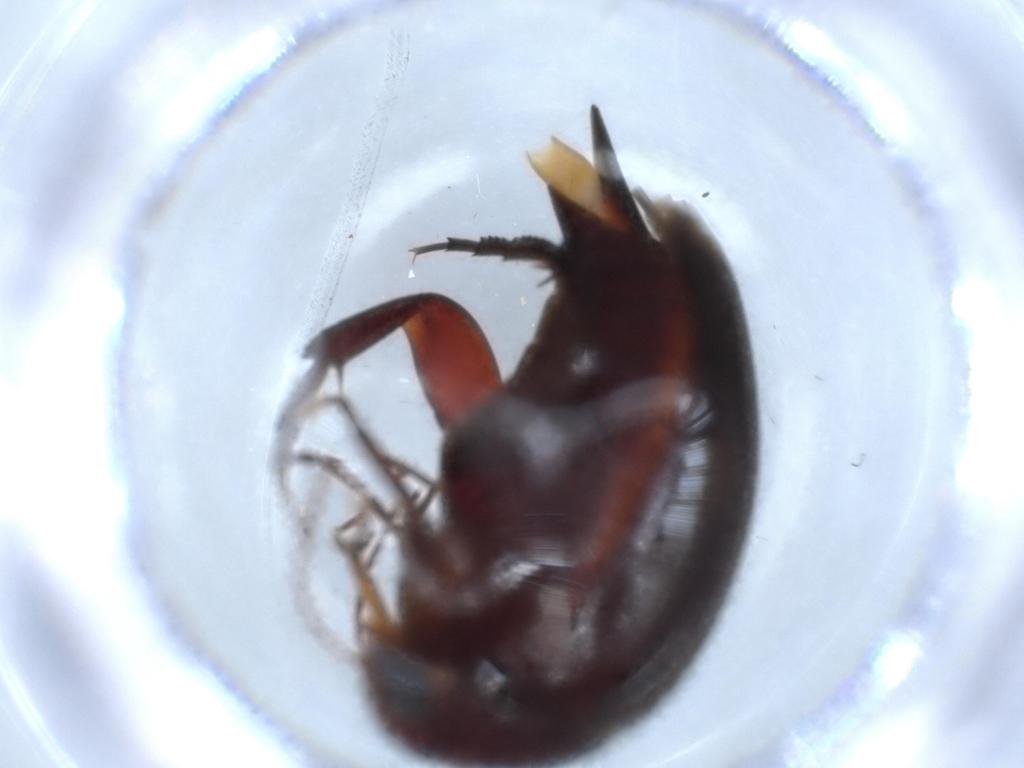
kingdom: Animalia
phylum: Arthropoda
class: Insecta
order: Coleoptera
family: Mordellidae
